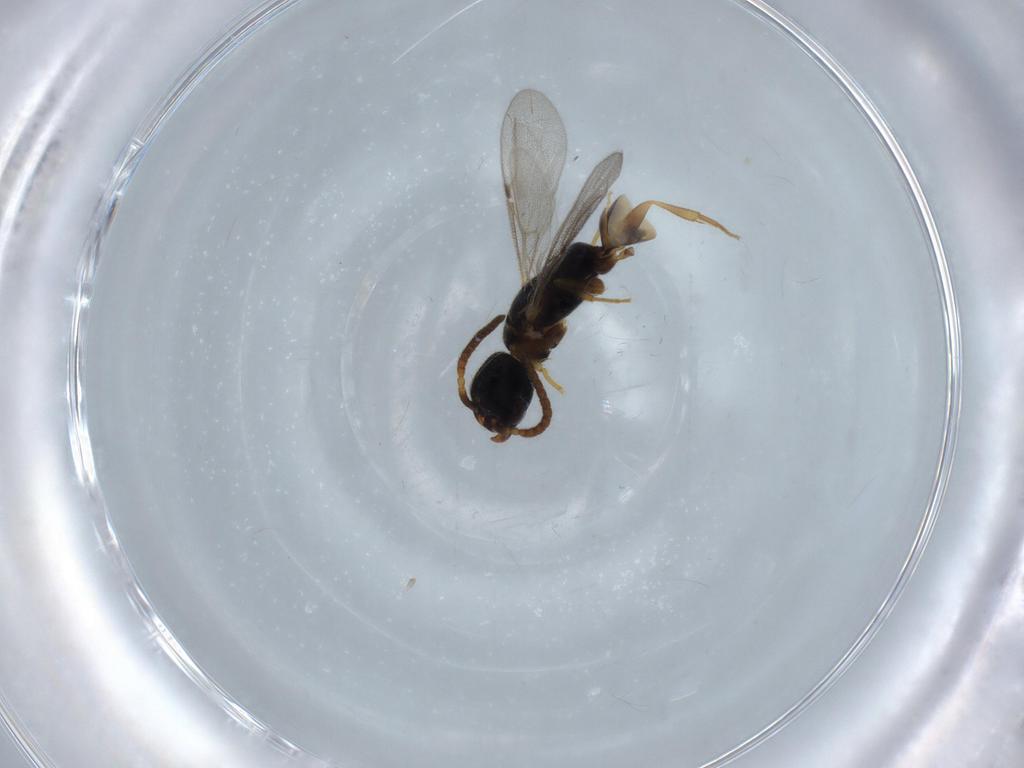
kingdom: Animalia
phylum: Arthropoda
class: Insecta
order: Hymenoptera
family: Bethylidae
